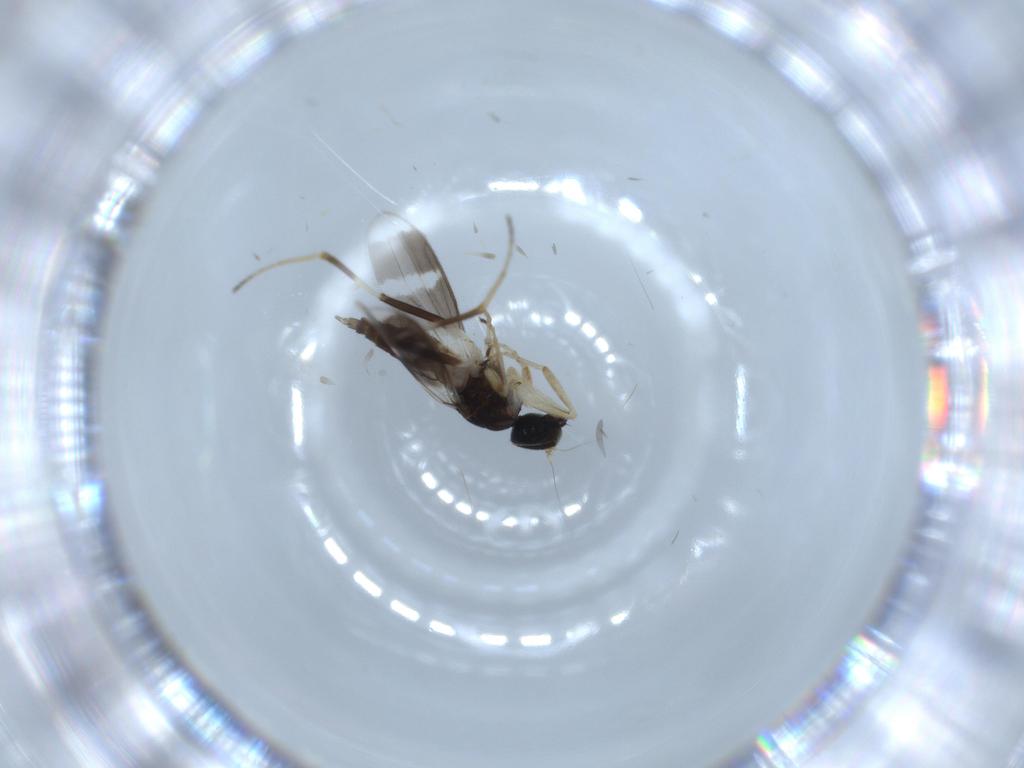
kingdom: Animalia
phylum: Arthropoda
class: Insecta
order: Diptera
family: Hybotidae
